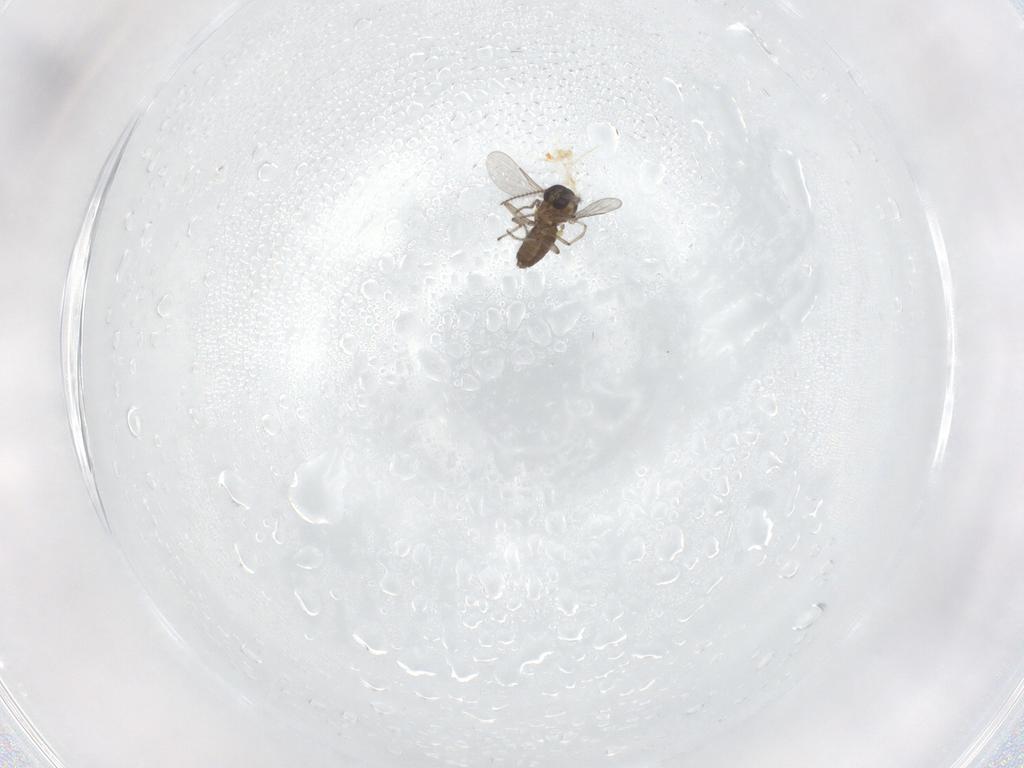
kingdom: Animalia
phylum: Arthropoda
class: Insecta
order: Diptera
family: Ceratopogonidae
